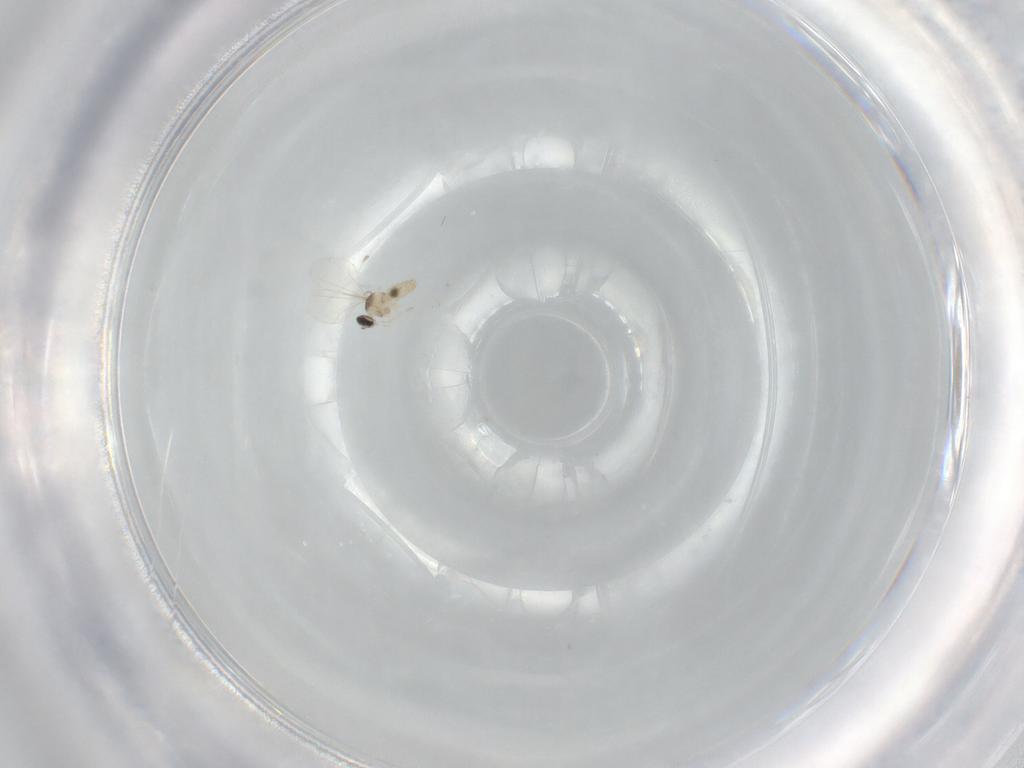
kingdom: Animalia
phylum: Arthropoda
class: Insecta
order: Diptera
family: Cecidomyiidae
